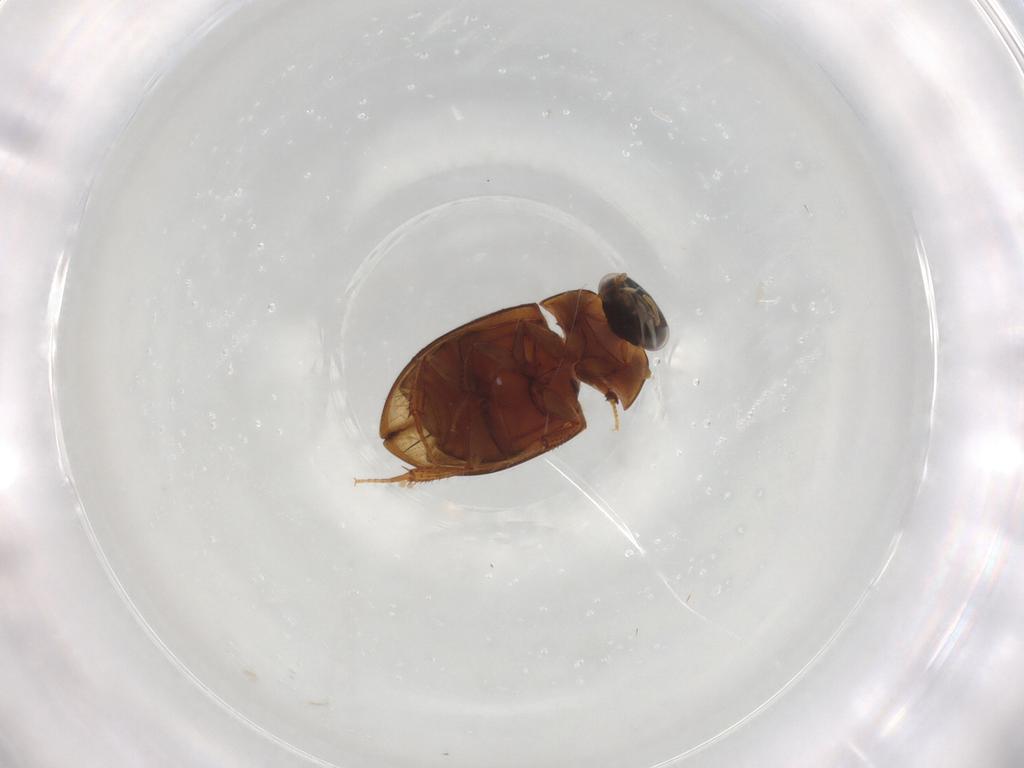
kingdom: Animalia
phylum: Arthropoda
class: Insecta
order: Coleoptera
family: Hydrophilidae
